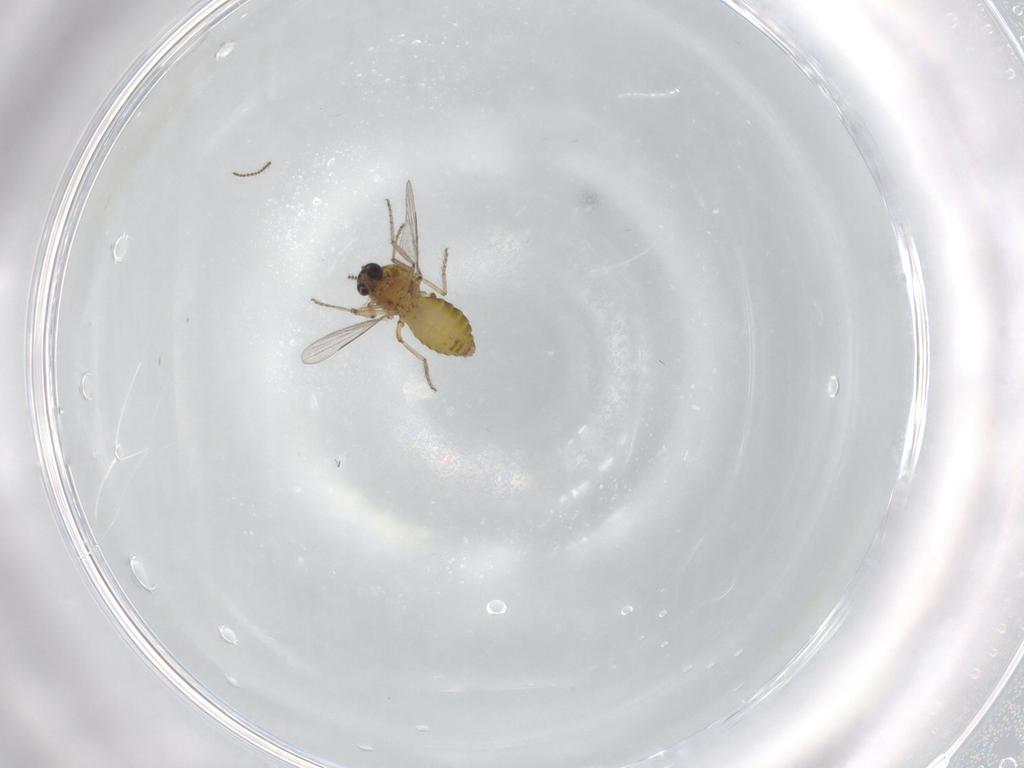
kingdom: Animalia
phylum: Arthropoda
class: Insecta
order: Diptera
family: Ceratopogonidae
